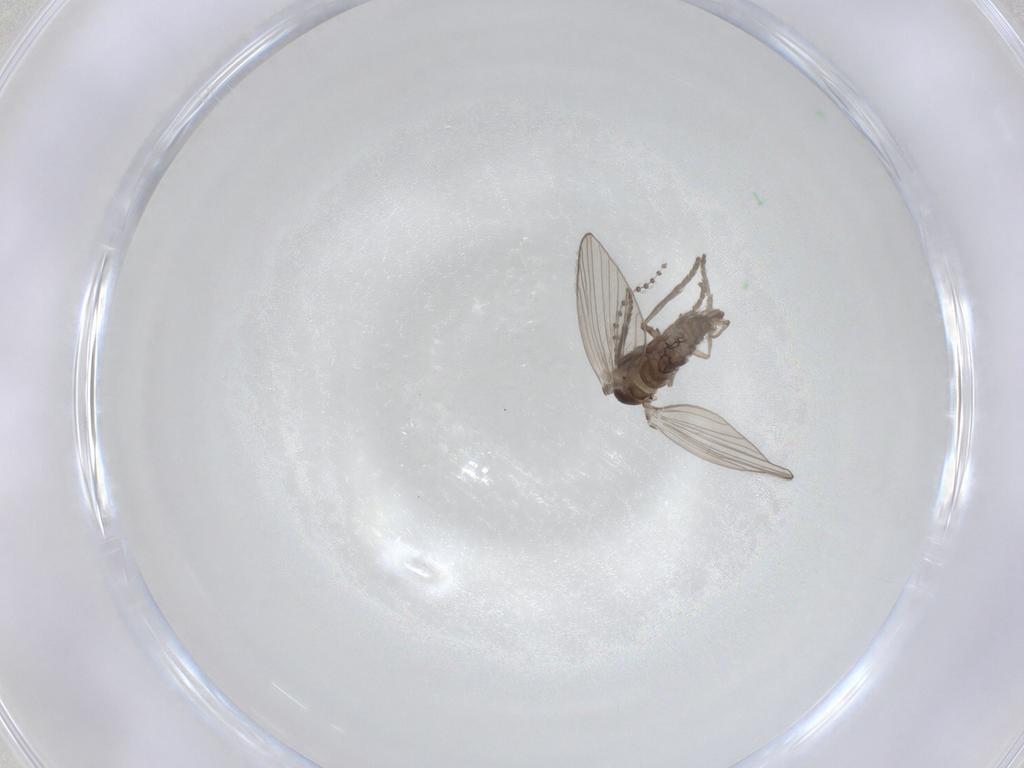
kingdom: Animalia
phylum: Arthropoda
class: Insecta
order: Diptera
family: Psychodidae
